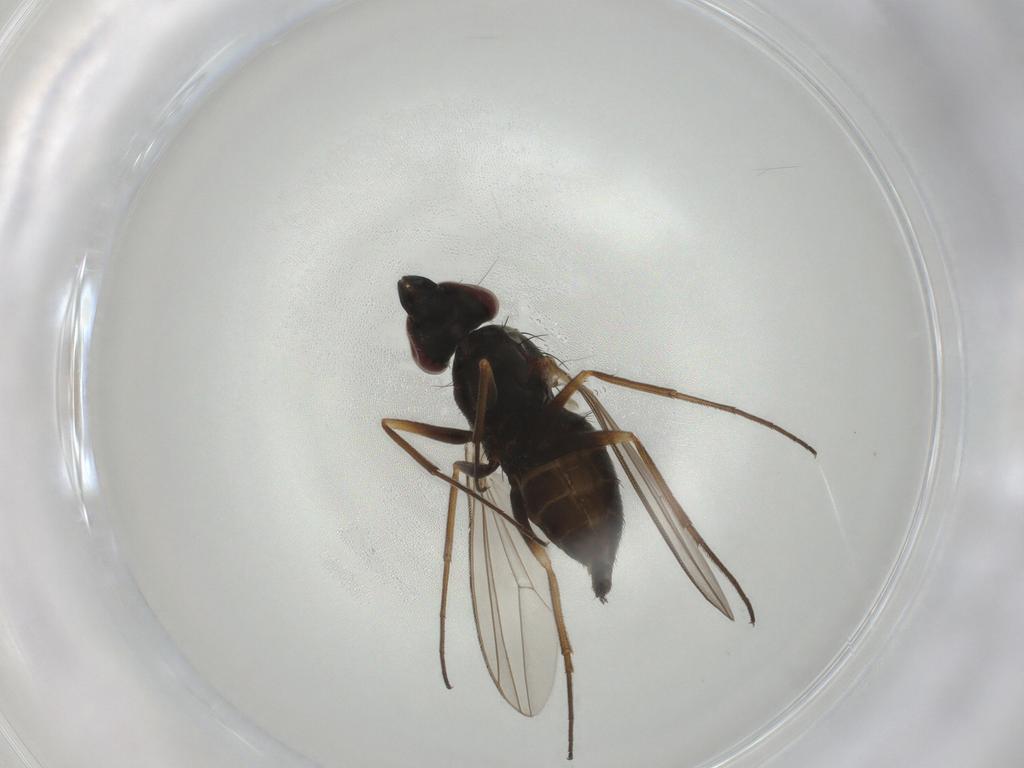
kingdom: Animalia
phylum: Arthropoda
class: Insecta
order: Diptera
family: Dolichopodidae
